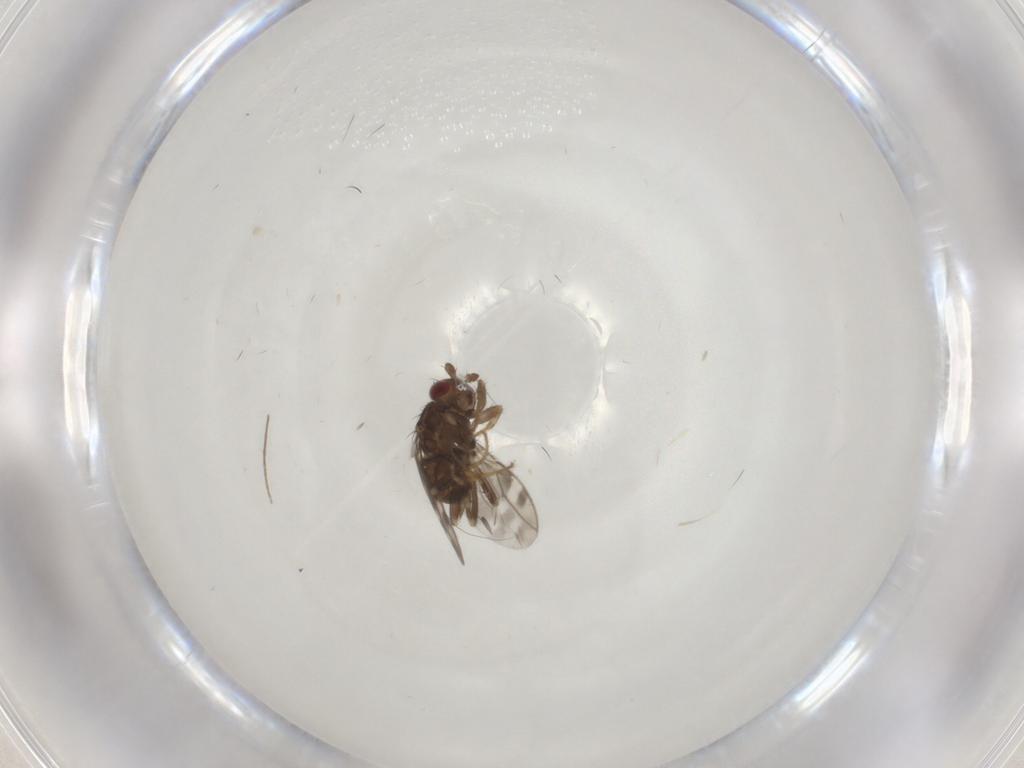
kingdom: Animalia
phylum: Arthropoda
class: Insecta
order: Diptera
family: Sphaeroceridae
